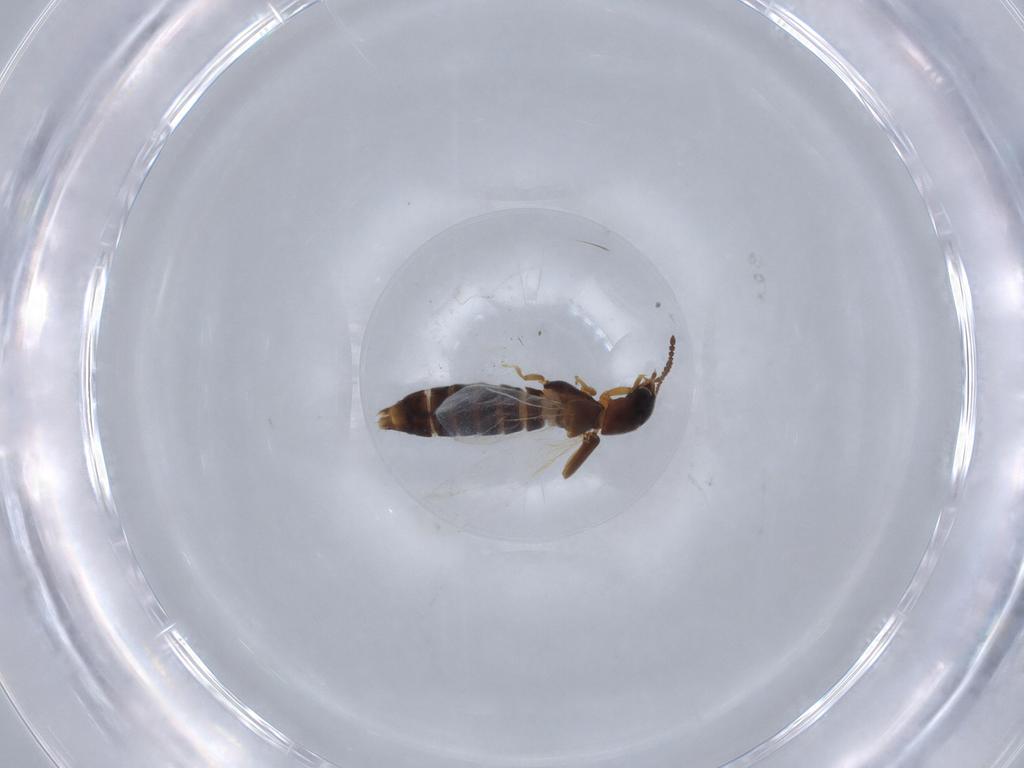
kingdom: Animalia
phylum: Arthropoda
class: Insecta
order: Coleoptera
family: Staphylinidae
